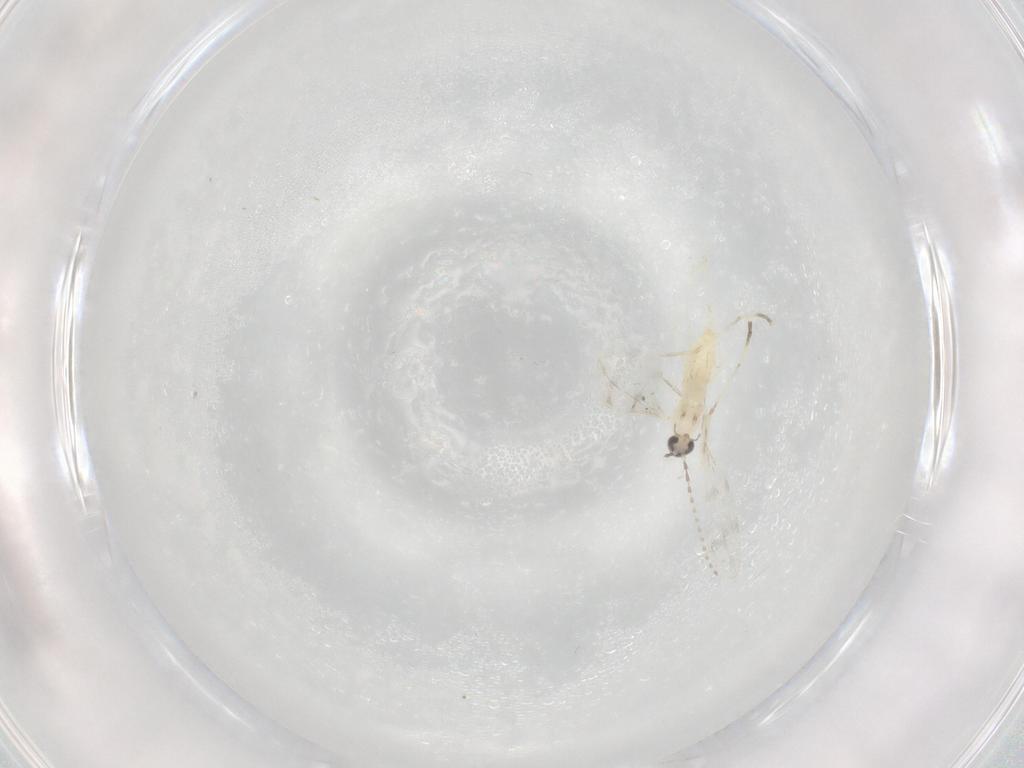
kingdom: Animalia
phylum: Arthropoda
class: Insecta
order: Diptera
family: Cecidomyiidae
